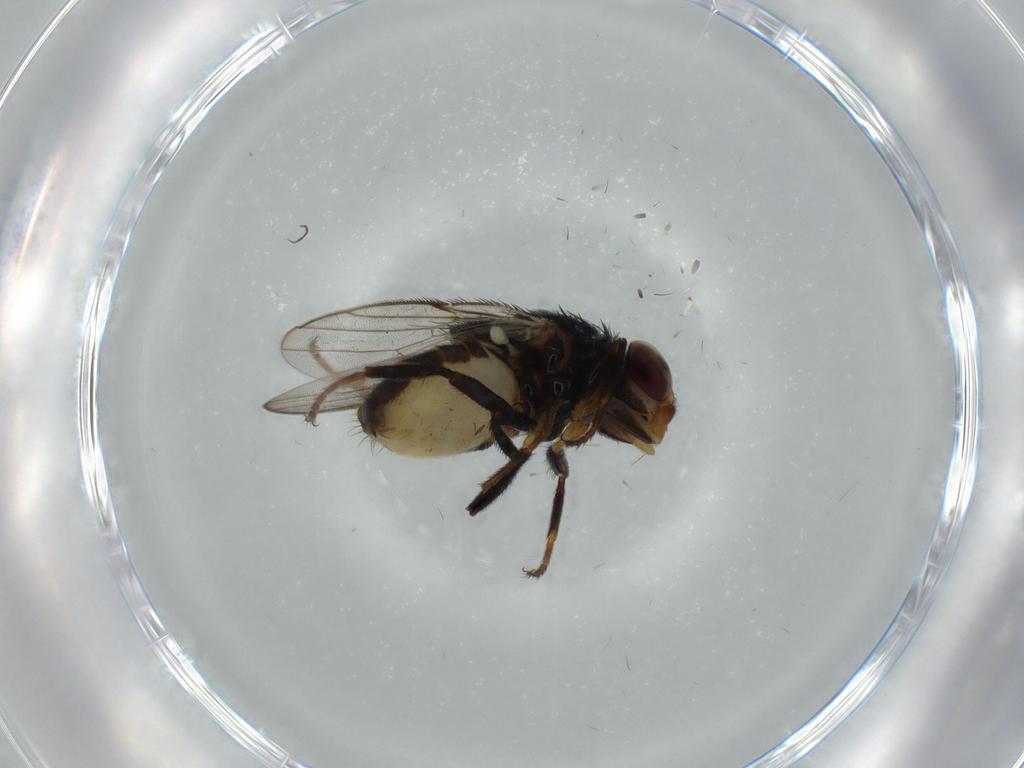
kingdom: Animalia
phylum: Arthropoda
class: Insecta
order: Diptera
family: Chloropidae
